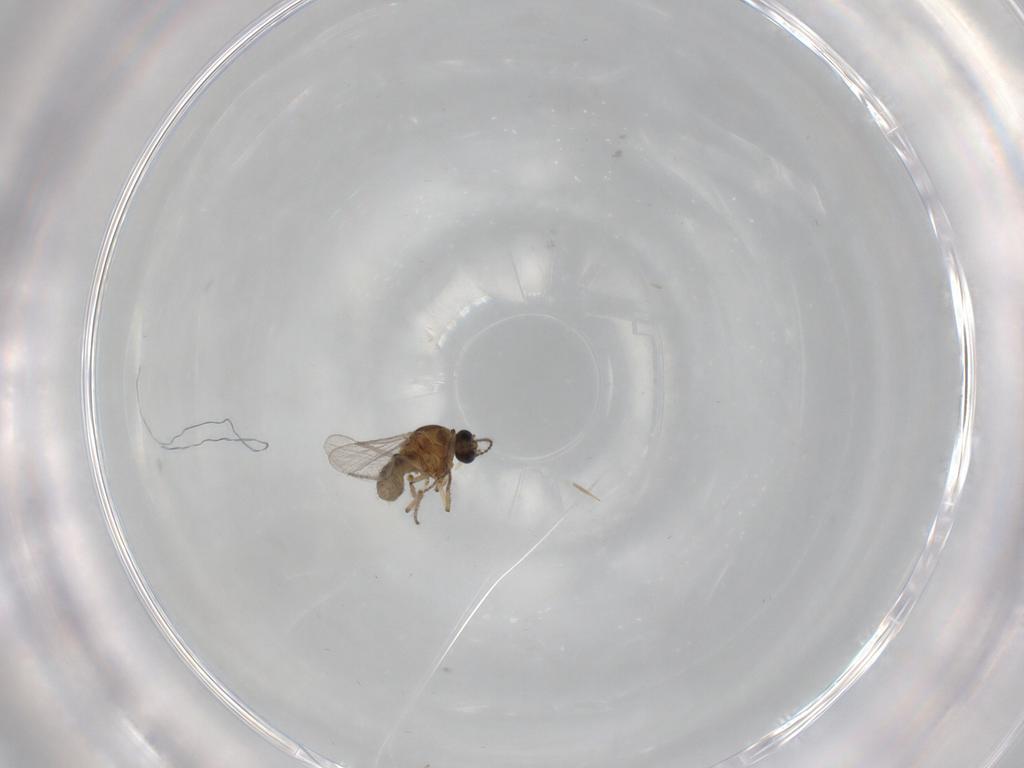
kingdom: Animalia
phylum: Arthropoda
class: Insecta
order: Diptera
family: Ceratopogonidae
